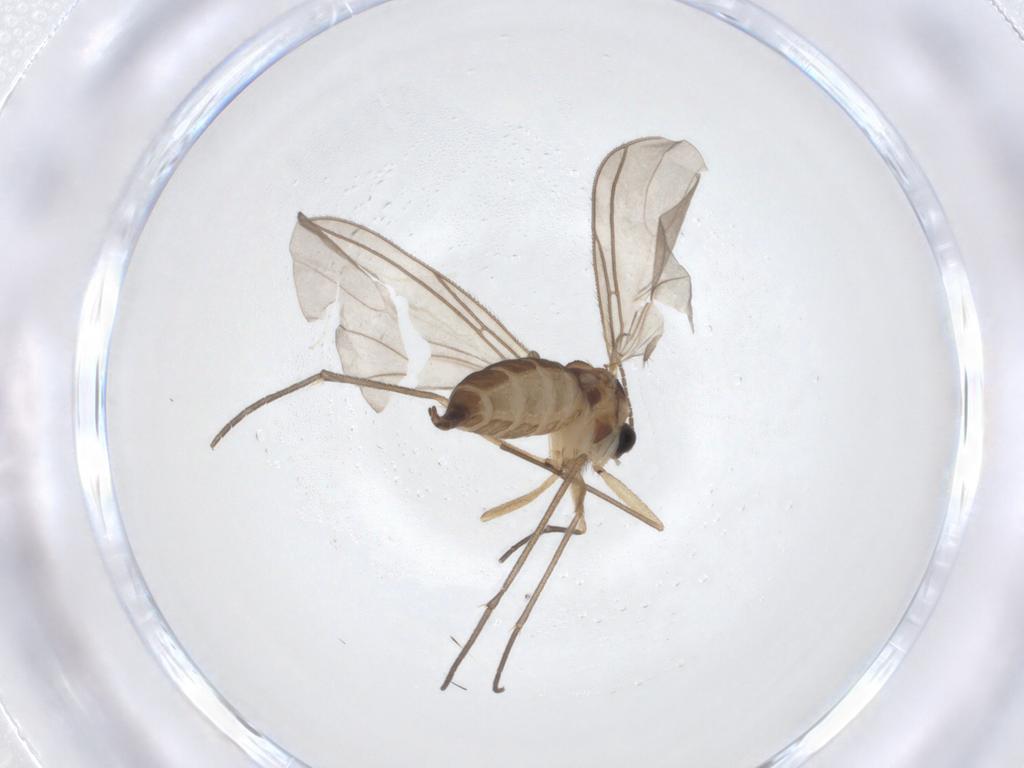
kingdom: Animalia
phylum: Arthropoda
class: Insecta
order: Diptera
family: Sciaridae
